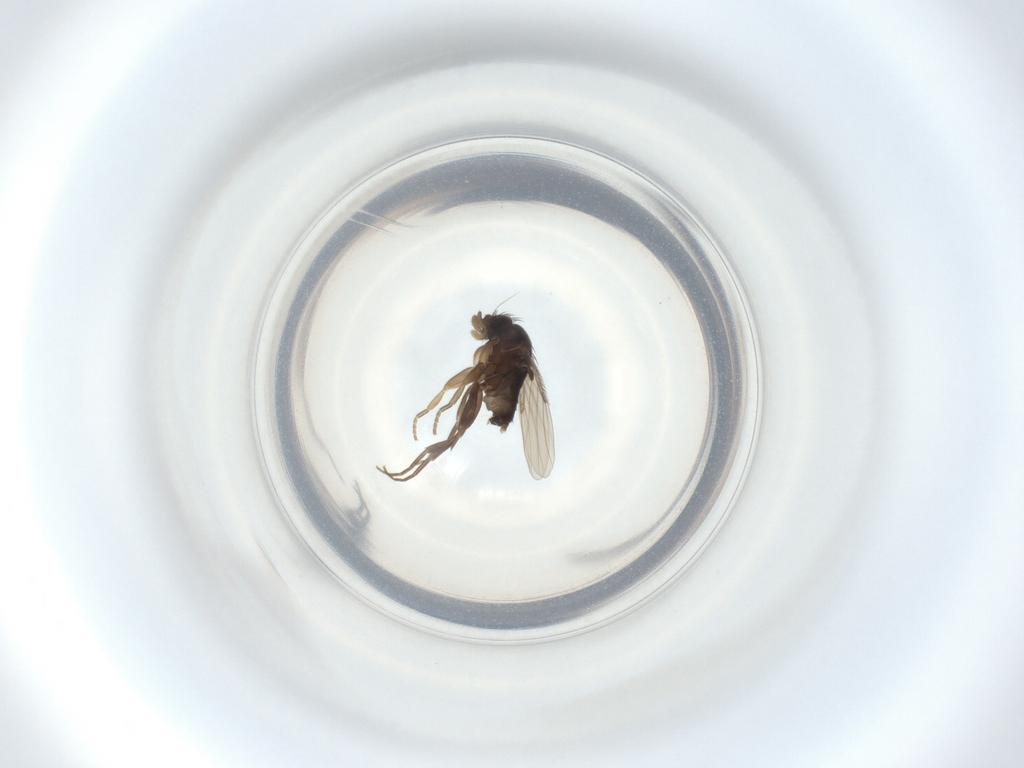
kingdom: Animalia
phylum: Arthropoda
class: Insecta
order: Diptera
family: Phoridae
